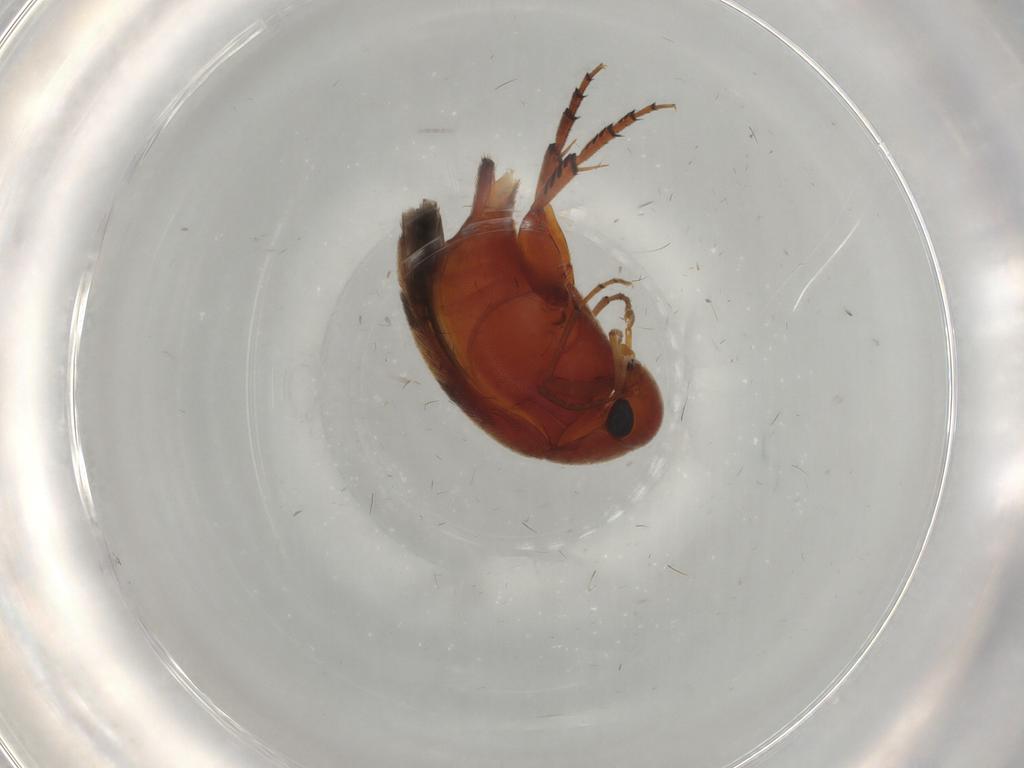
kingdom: Animalia
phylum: Arthropoda
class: Insecta
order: Coleoptera
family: Mordellidae
